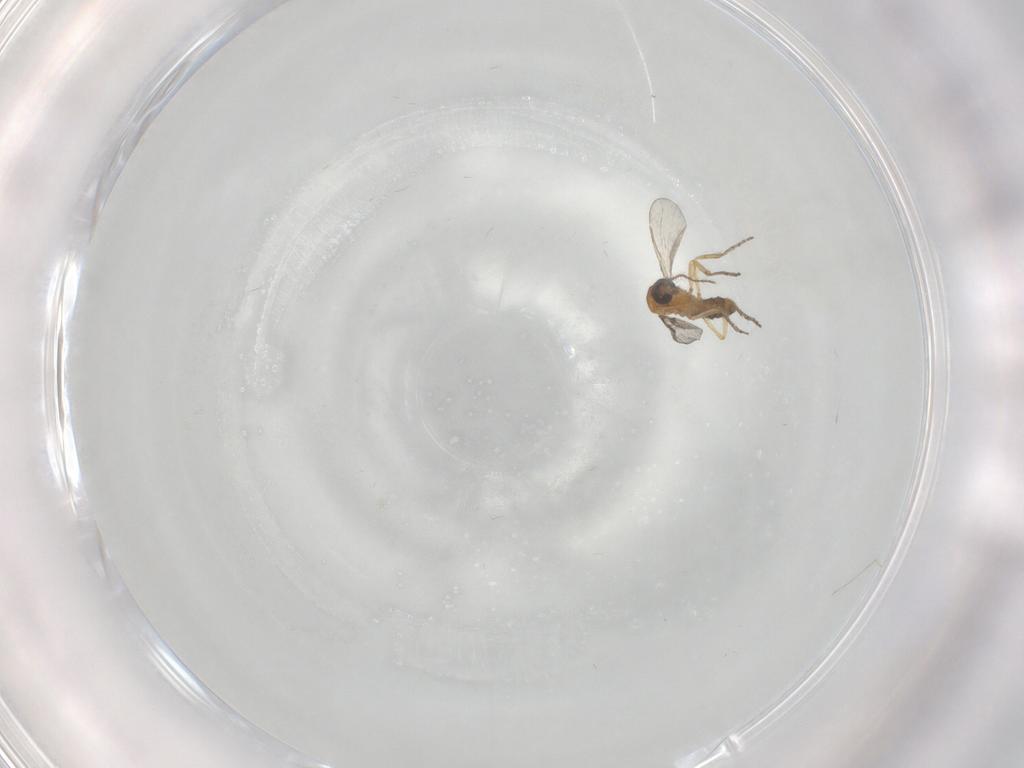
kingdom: Animalia
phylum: Arthropoda
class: Insecta
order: Diptera
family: Ceratopogonidae
